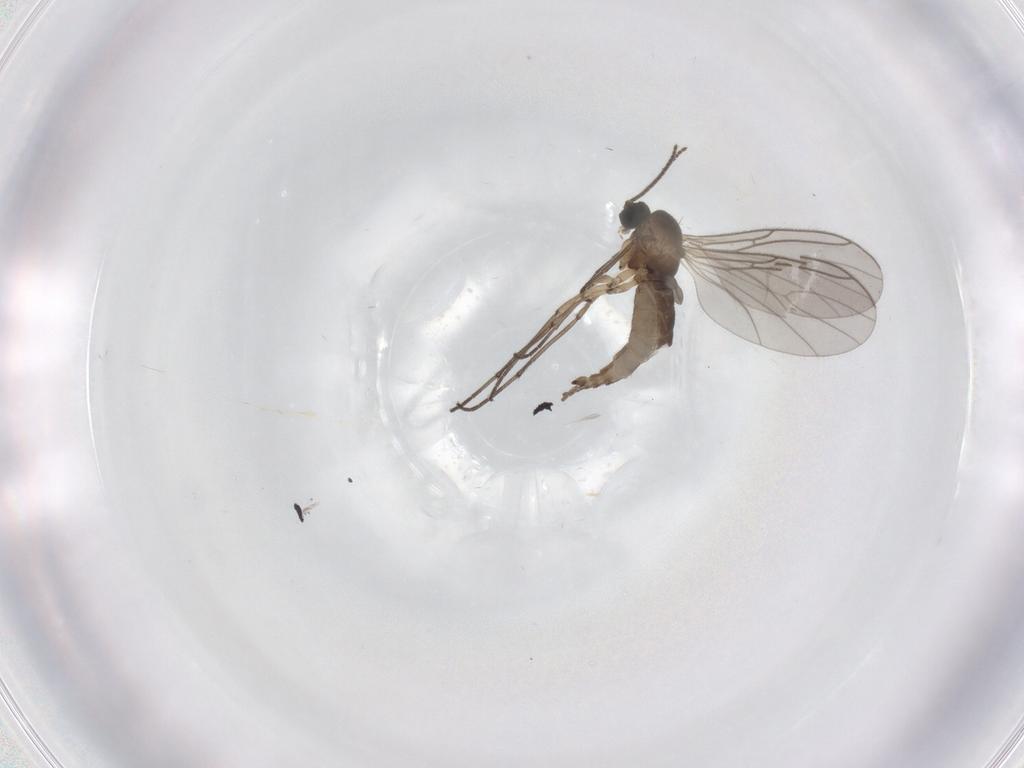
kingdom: Animalia
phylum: Arthropoda
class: Insecta
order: Diptera
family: Sciaridae
